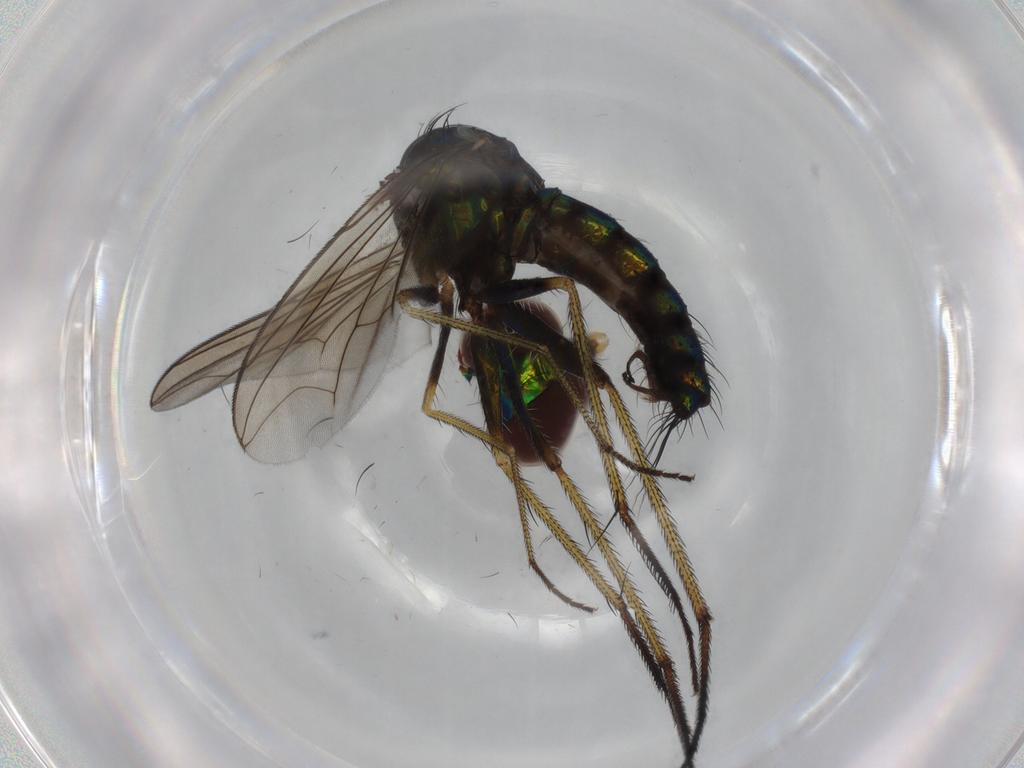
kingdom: Animalia
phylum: Arthropoda
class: Insecta
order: Diptera
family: Dolichopodidae
